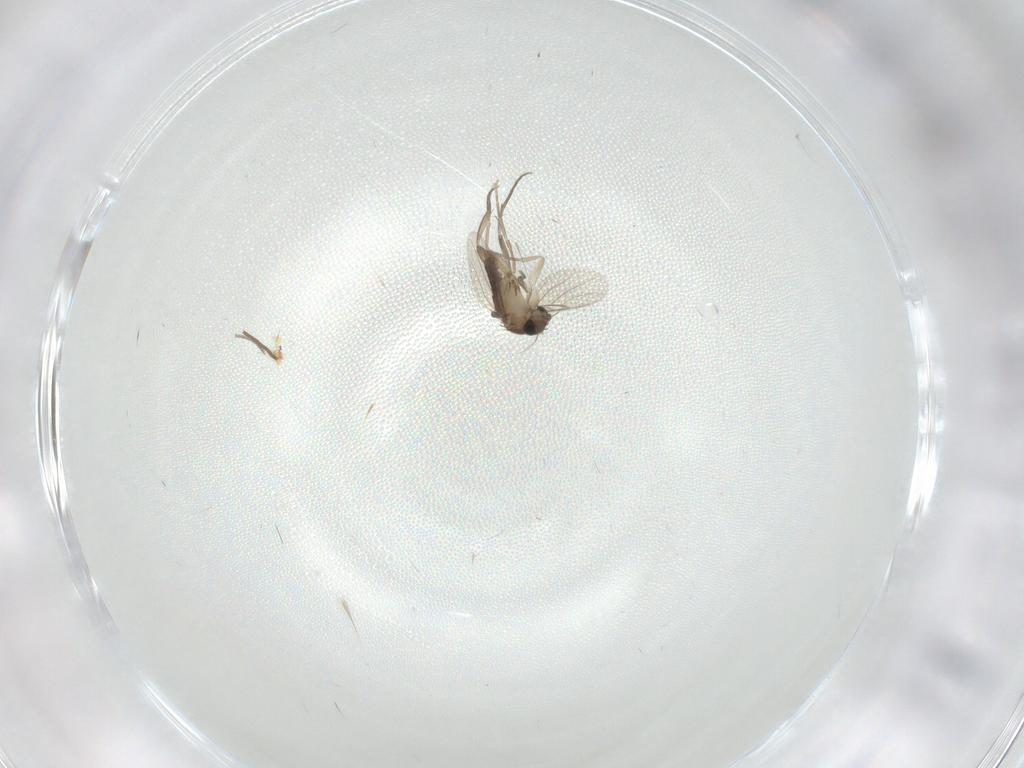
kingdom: Animalia
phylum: Arthropoda
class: Insecta
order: Diptera
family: Sciaridae
